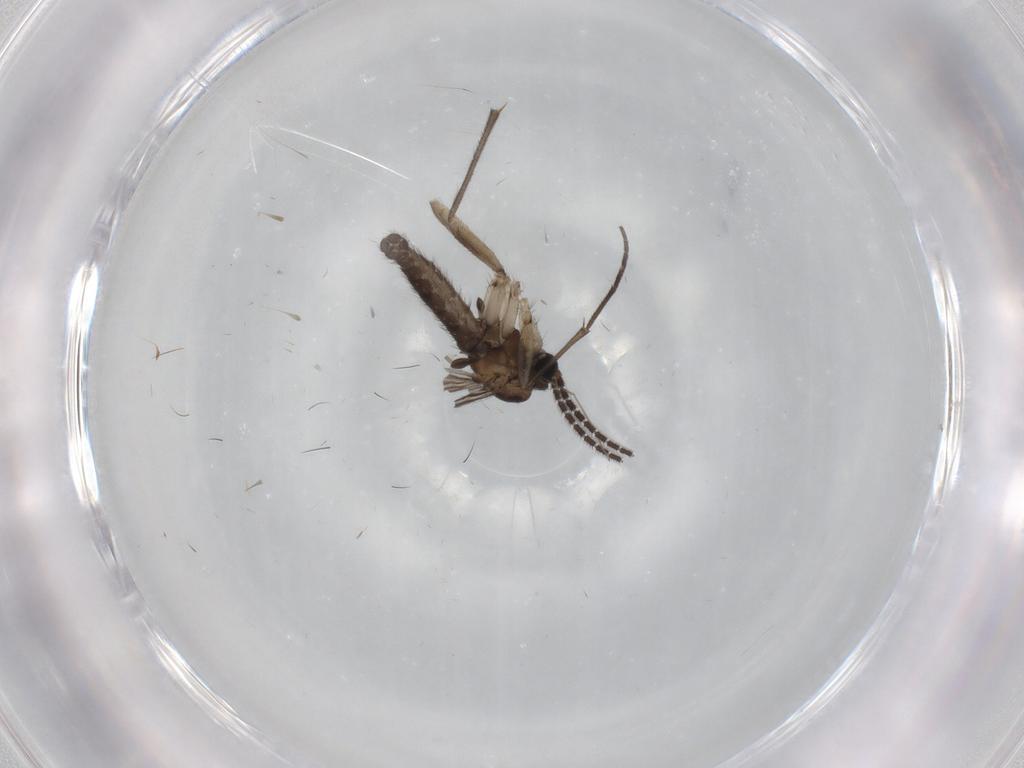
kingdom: Animalia
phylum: Arthropoda
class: Insecta
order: Diptera
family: Sciaridae
